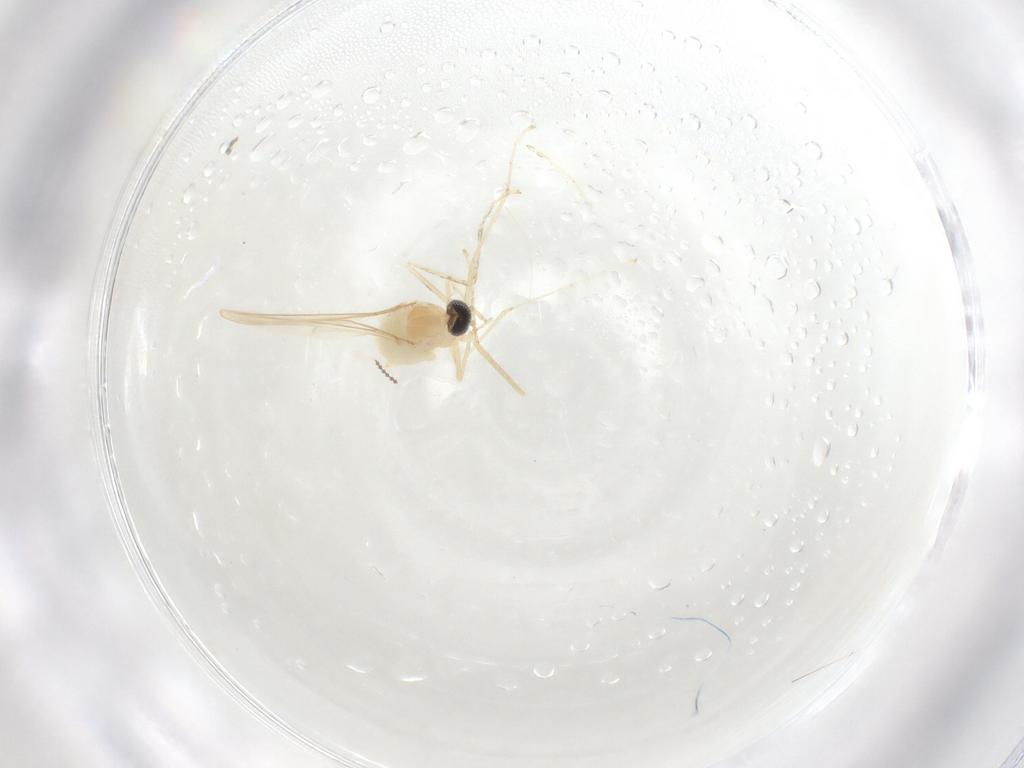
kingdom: Animalia
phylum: Arthropoda
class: Insecta
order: Diptera
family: Cecidomyiidae
